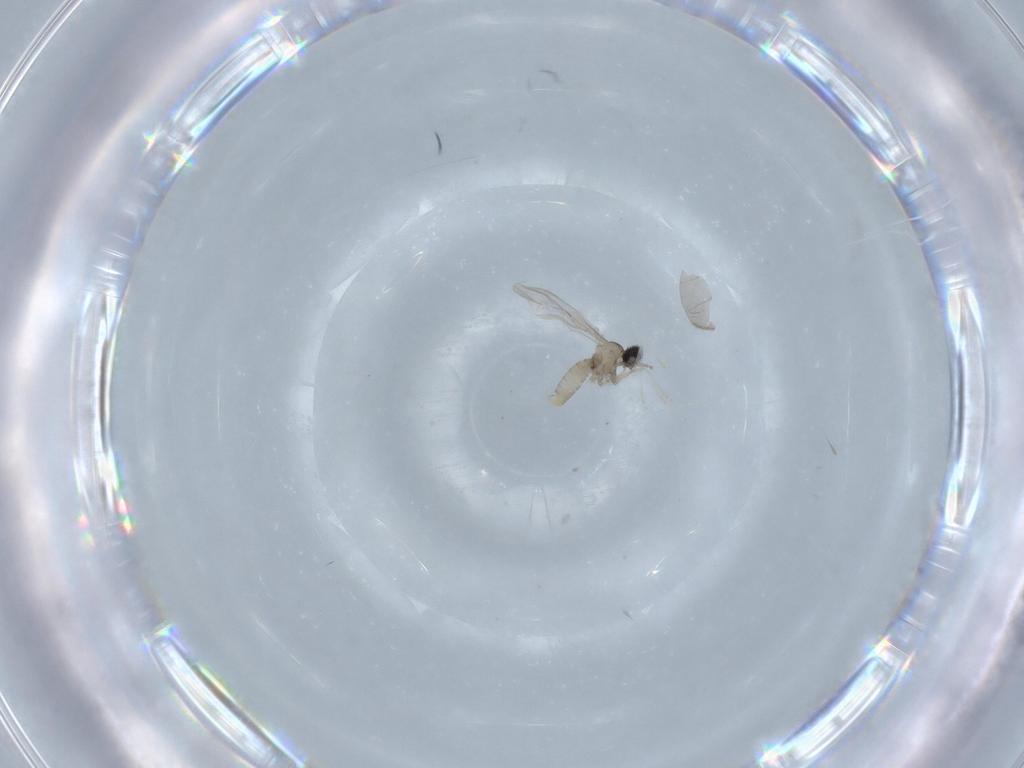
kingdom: Animalia
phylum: Arthropoda
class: Insecta
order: Diptera
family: Cecidomyiidae
